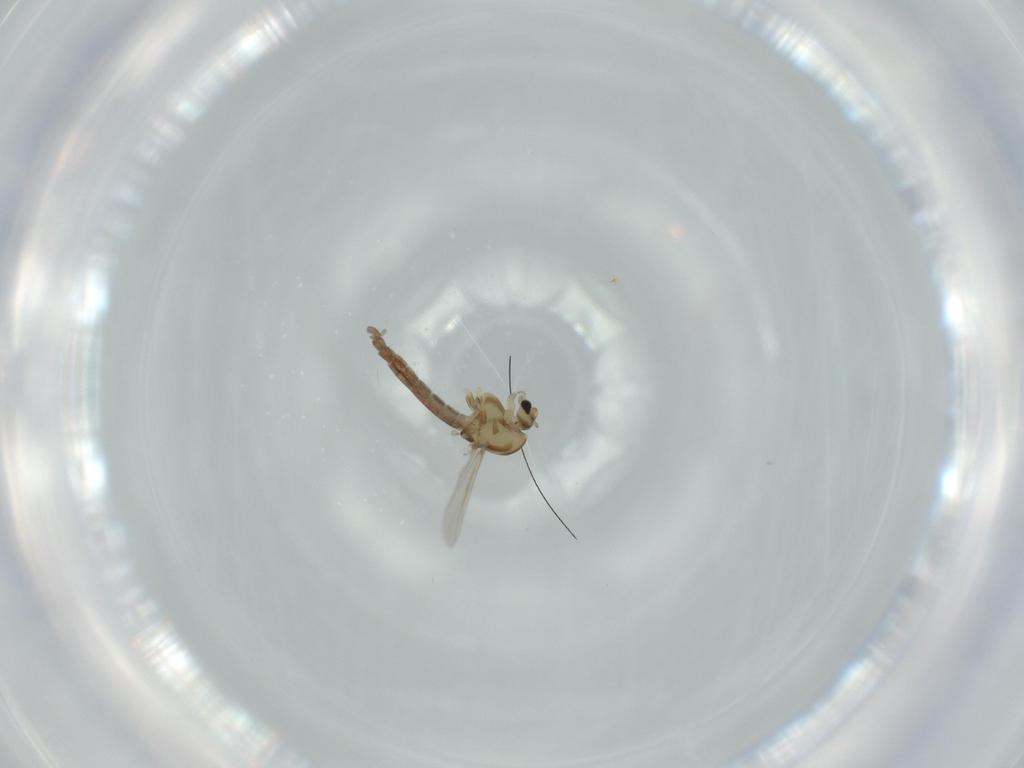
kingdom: Animalia
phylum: Arthropoda
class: Insecta
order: Diptera
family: Chironomidae
